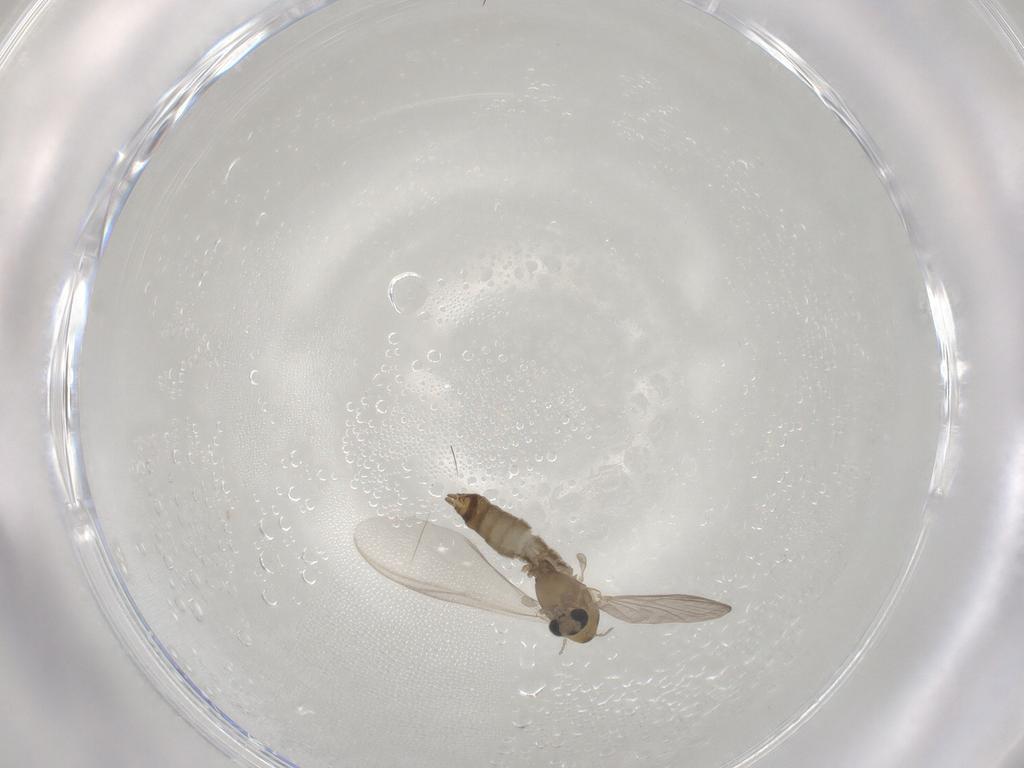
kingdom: Animalia
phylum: Arthropoda
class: Insecta
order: Diptera
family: Chironomidae
